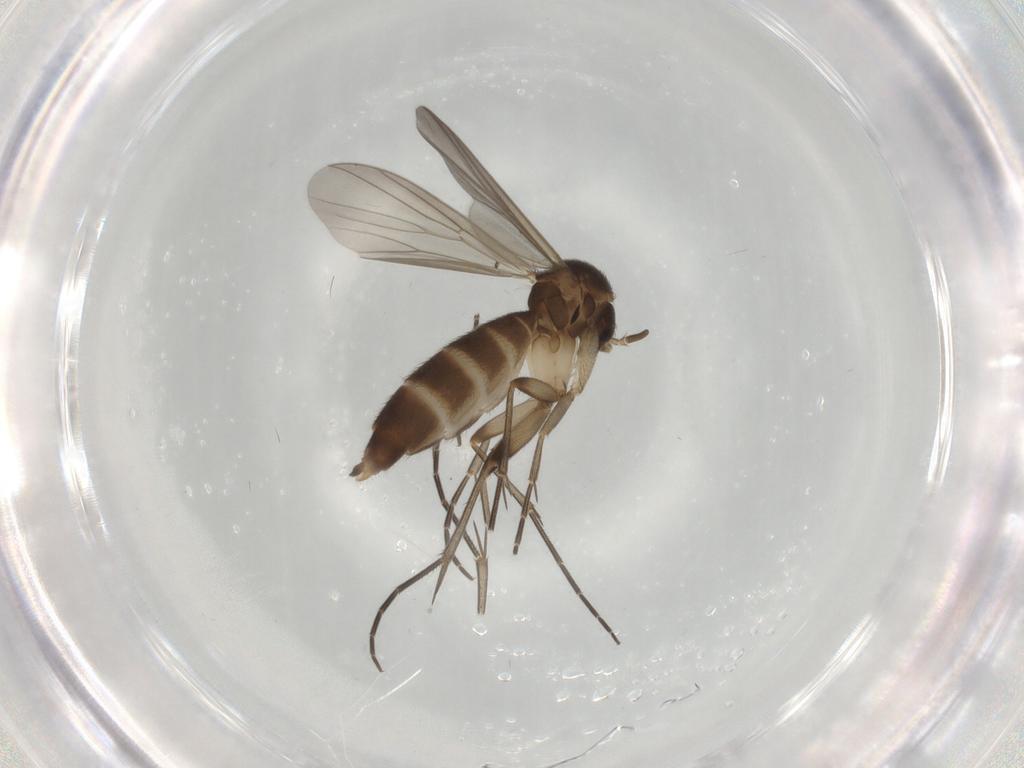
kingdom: Animalia
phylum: Arthropoda
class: Insecta
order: Diptera
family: Mycetophilidae
